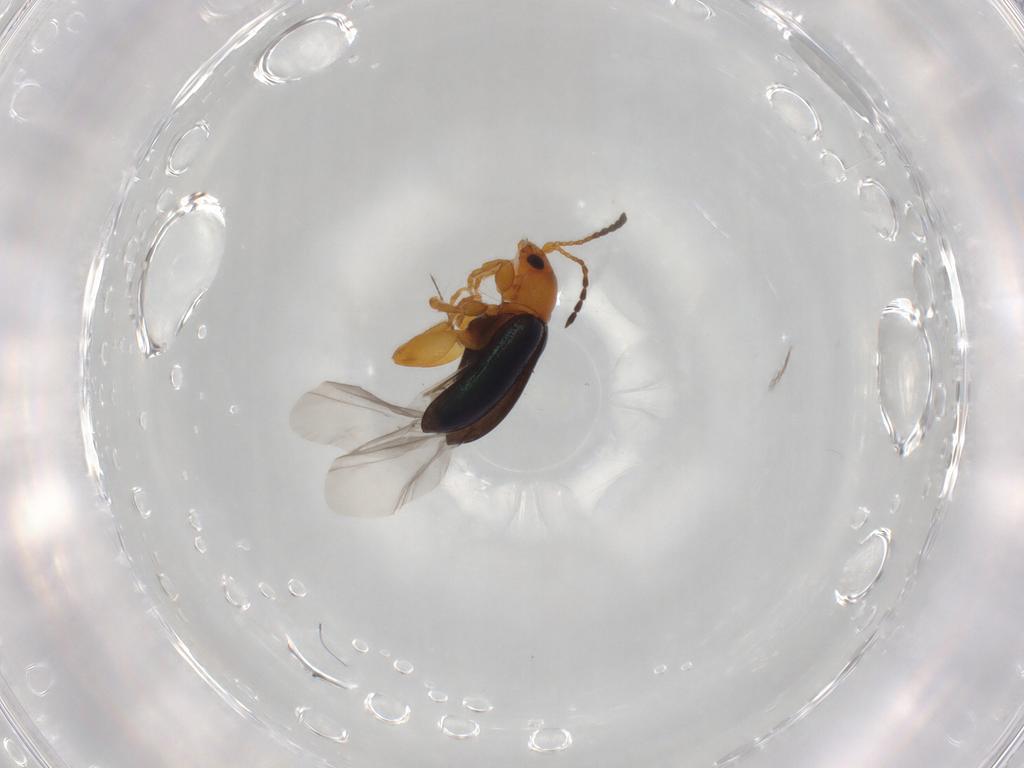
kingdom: Animalia
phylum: Arthropoda
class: Insecta
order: Coleoptera
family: Chrysomelidae
